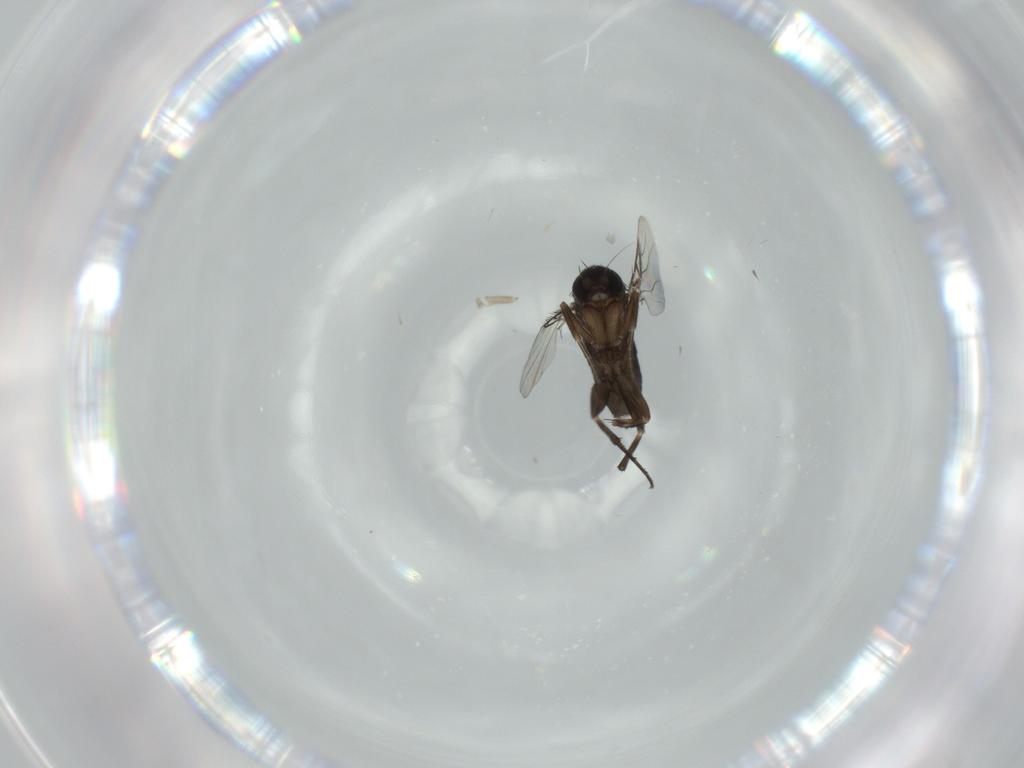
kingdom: Animalia
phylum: Arthropoda
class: Insecta
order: Diptera
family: Phoridae
